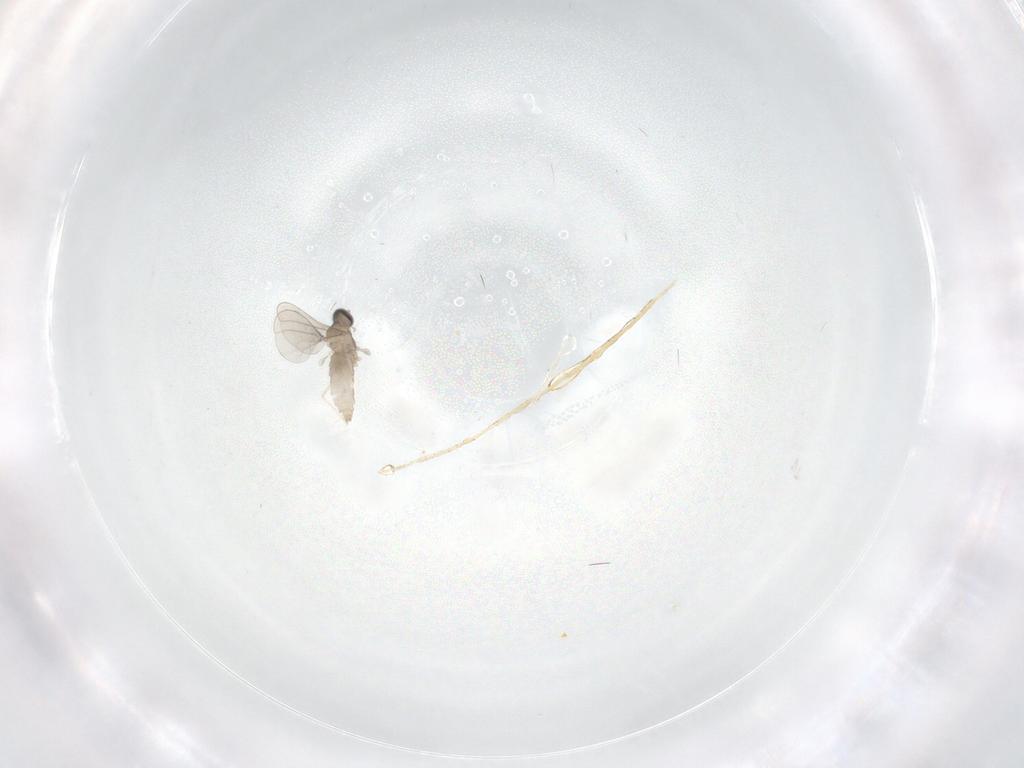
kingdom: Animalia
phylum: Arthropoda
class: Insecta
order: Diptera
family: Cecidomyiidae
